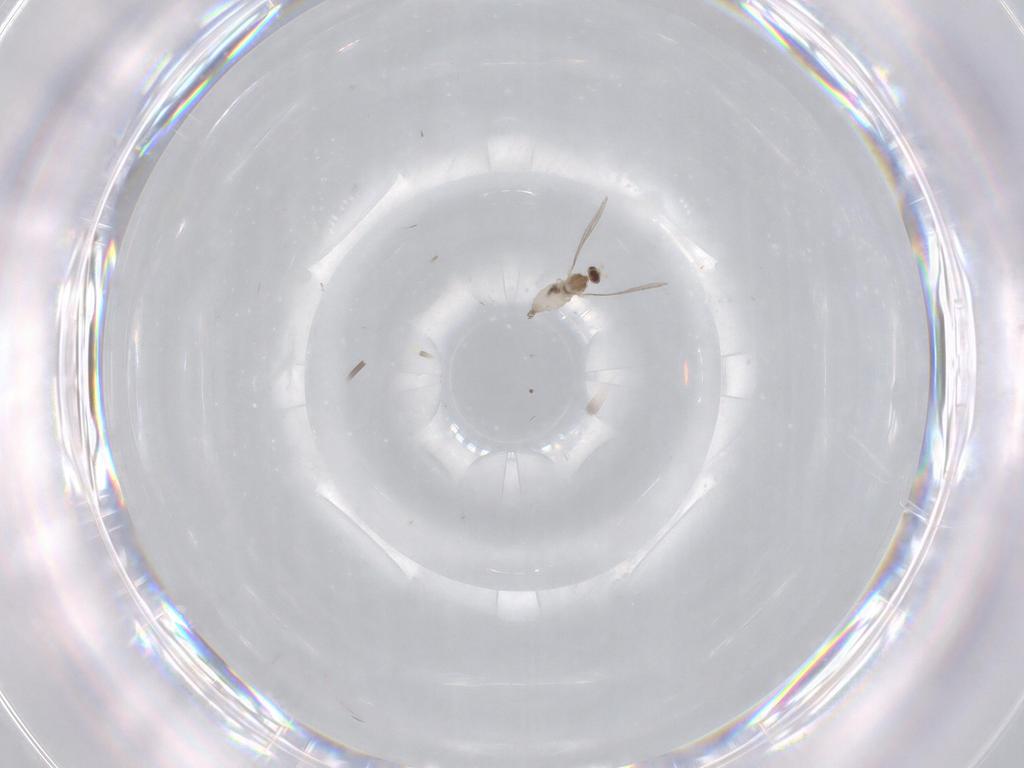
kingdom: Animalia
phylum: Arthropoda
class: Insecta
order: Diptera
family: Cecidomyiidae
